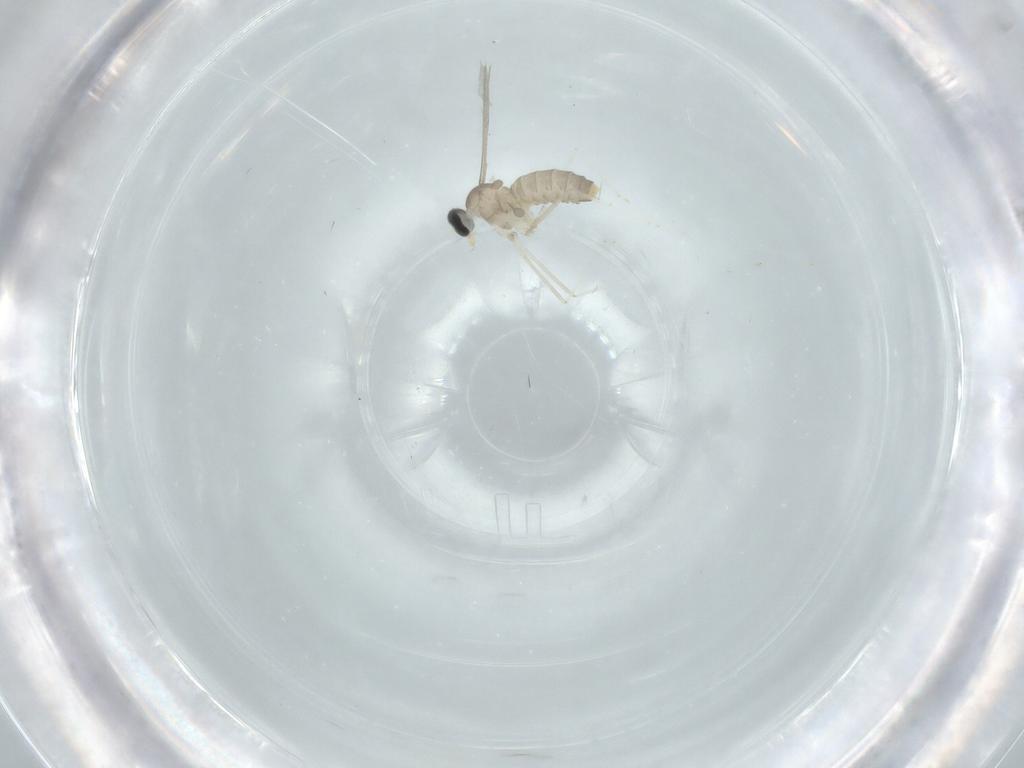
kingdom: Animalia
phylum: Arthropoda
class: Insecta
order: Diptera
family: Cecidomyiidae
